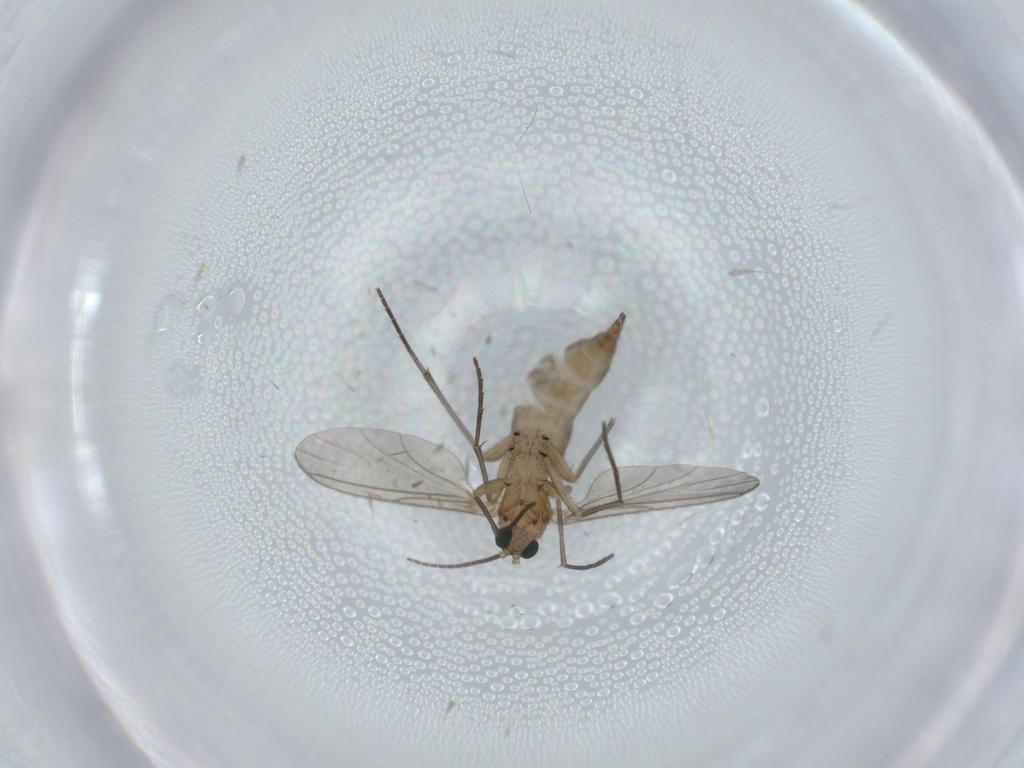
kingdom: Animalia
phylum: Arthropoda
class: Insecta
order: Diptera
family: Sciaridae
